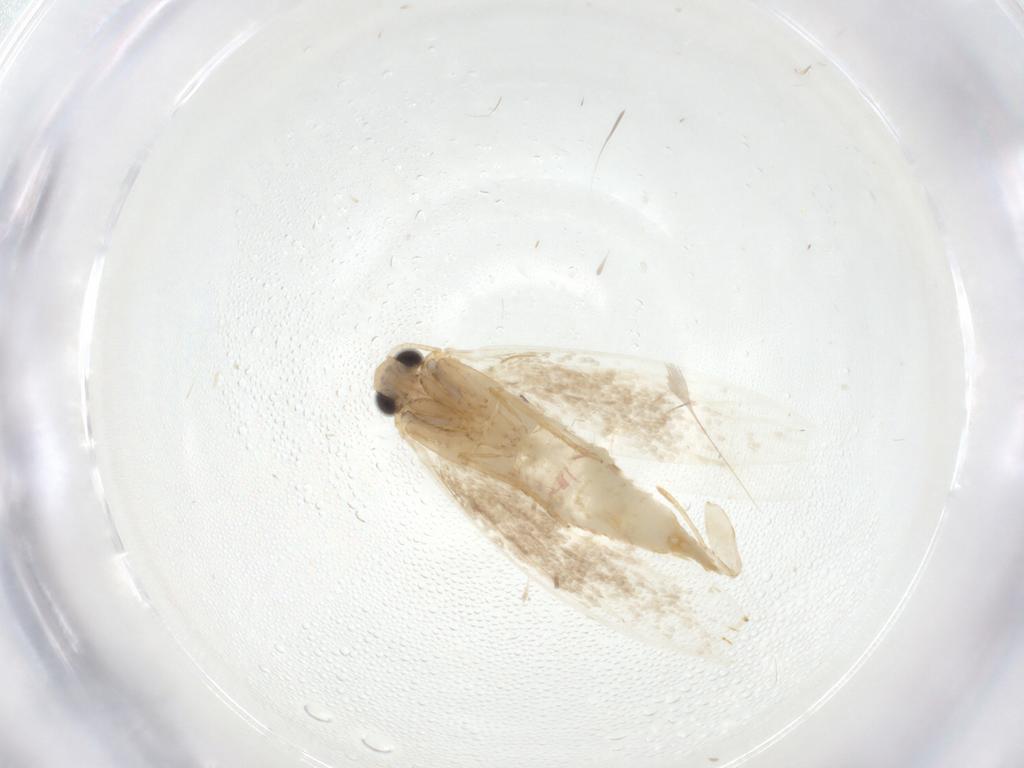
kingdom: Animalia
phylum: Arthropoda
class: Insecta
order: Lepidoptera
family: Tineidae
